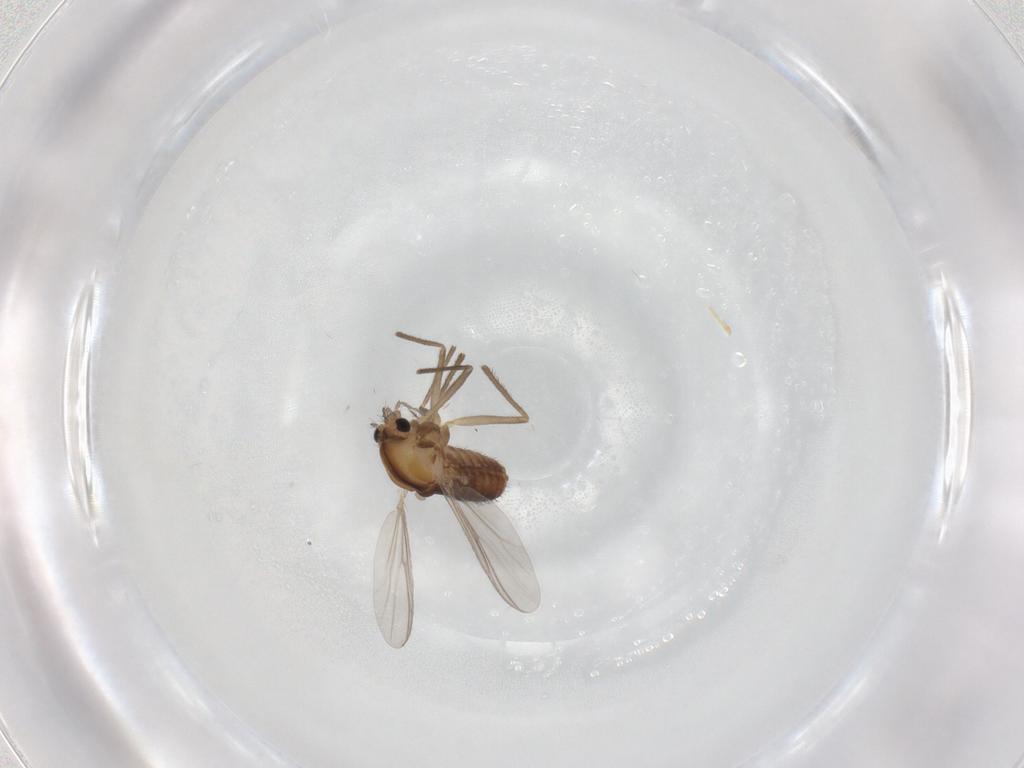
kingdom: Animalia
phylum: Arthropoda
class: Insecta
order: Diptera
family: Chironomidae
